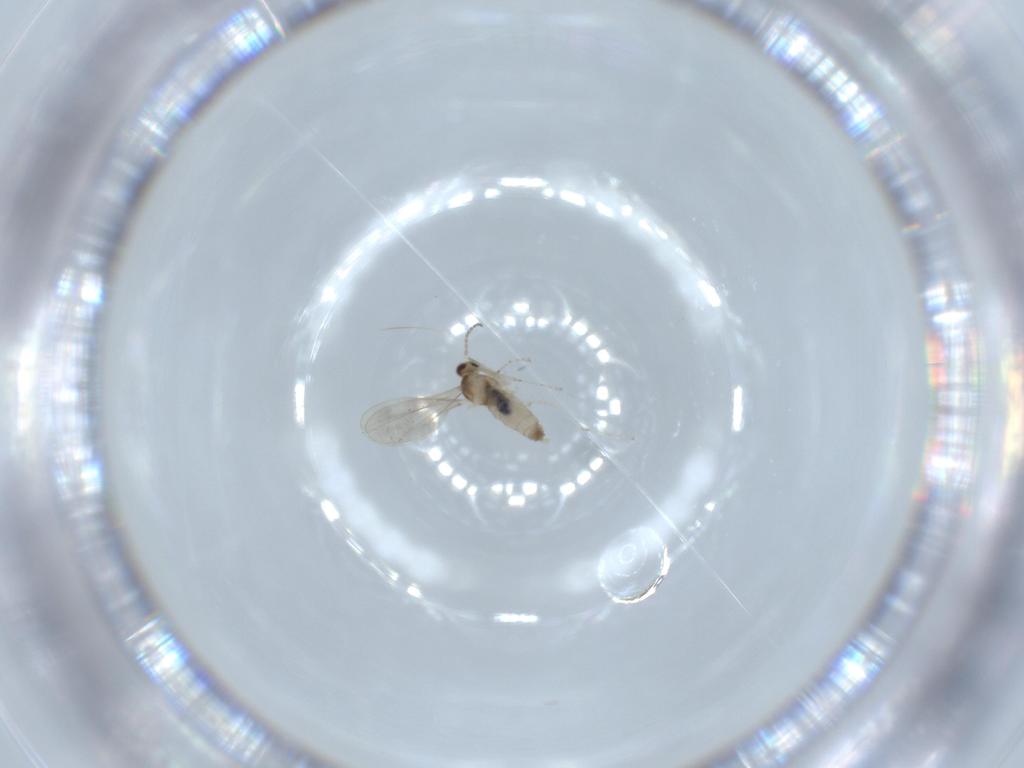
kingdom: Animalia
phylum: Arthropoda
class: Insecta
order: Diptera
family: Cecidomyiidae
